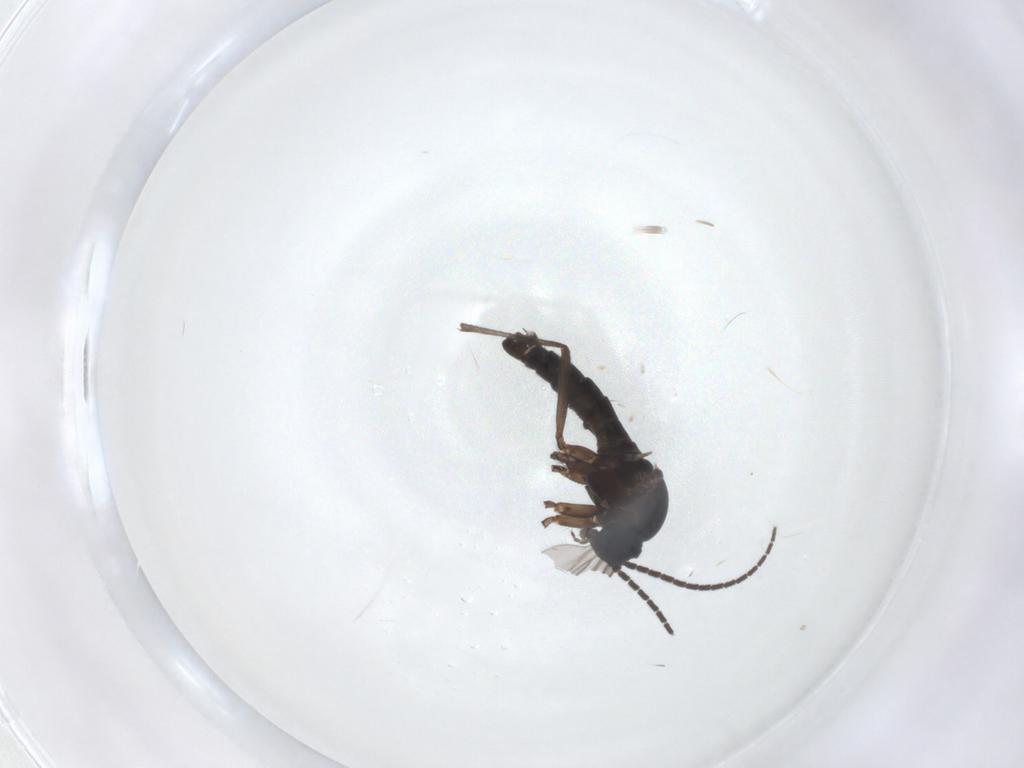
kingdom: Animalia
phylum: Arthropoda
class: Insecta
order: Diptera
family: Sciaridae
